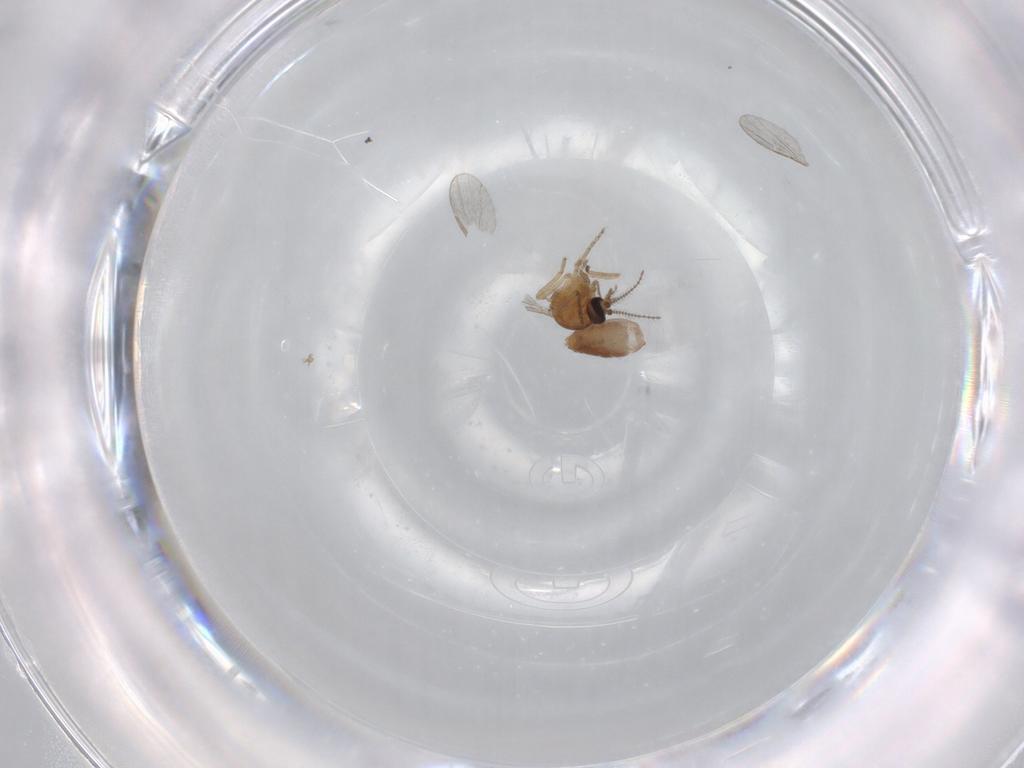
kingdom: Animalia
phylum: Arthropoda
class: Insecta
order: Diptera
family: Ceratopogonidae
